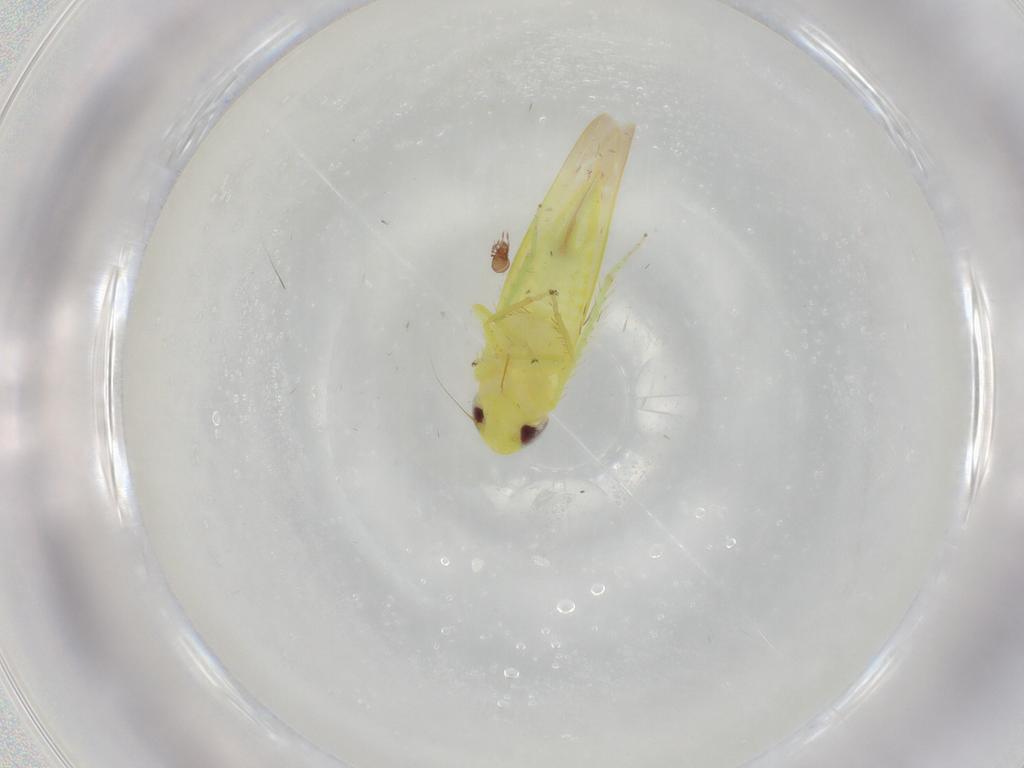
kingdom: Animalia
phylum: Arthropoda
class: Insecta
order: Hemiptera
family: Cicadellidae
